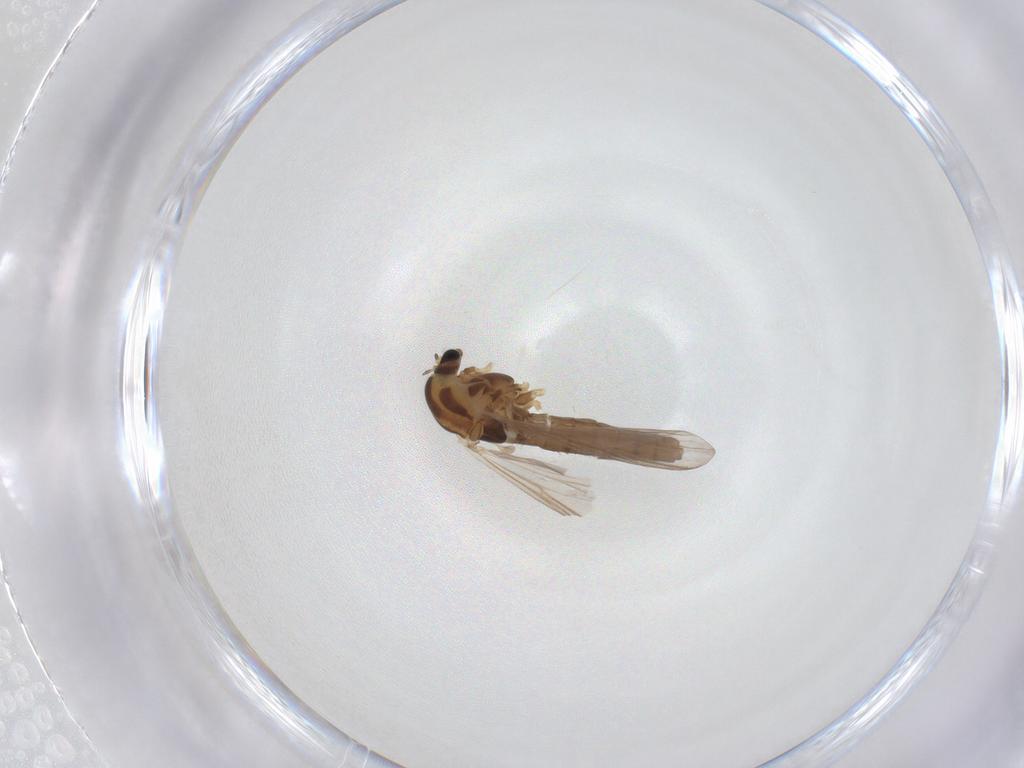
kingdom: Animalia
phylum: Arthropoda
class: Insecta
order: Diptera
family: Chironomidae
